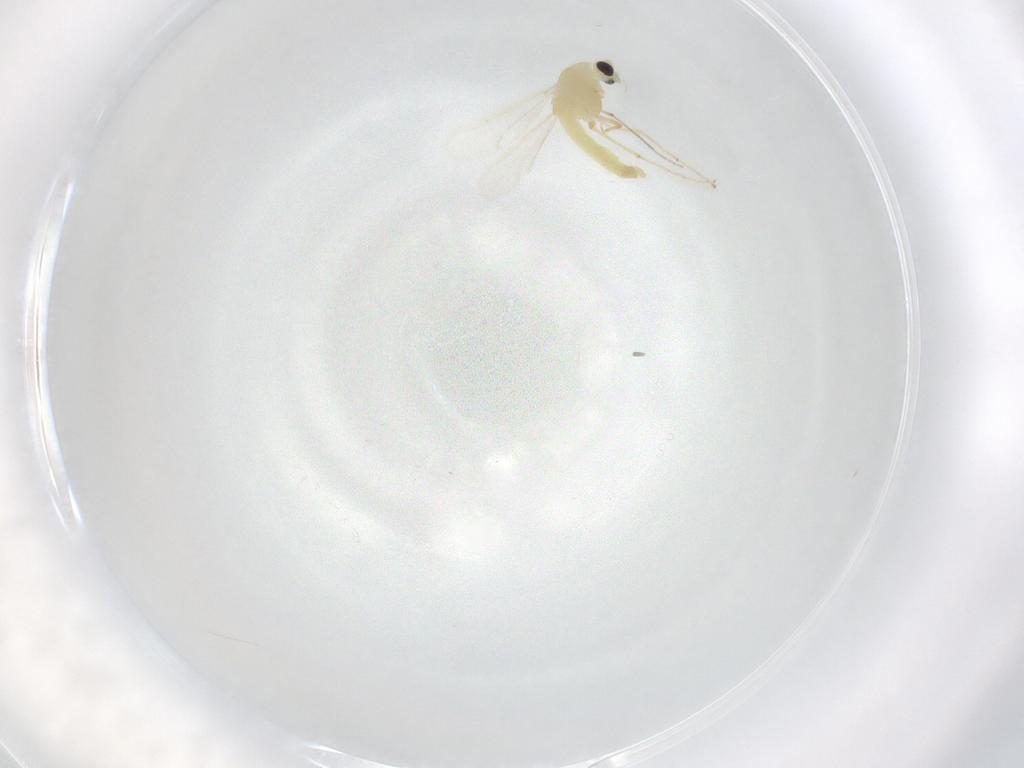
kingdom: Animalia
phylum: Arthropoda
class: Insecta
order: Diptera
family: Chironomidae
